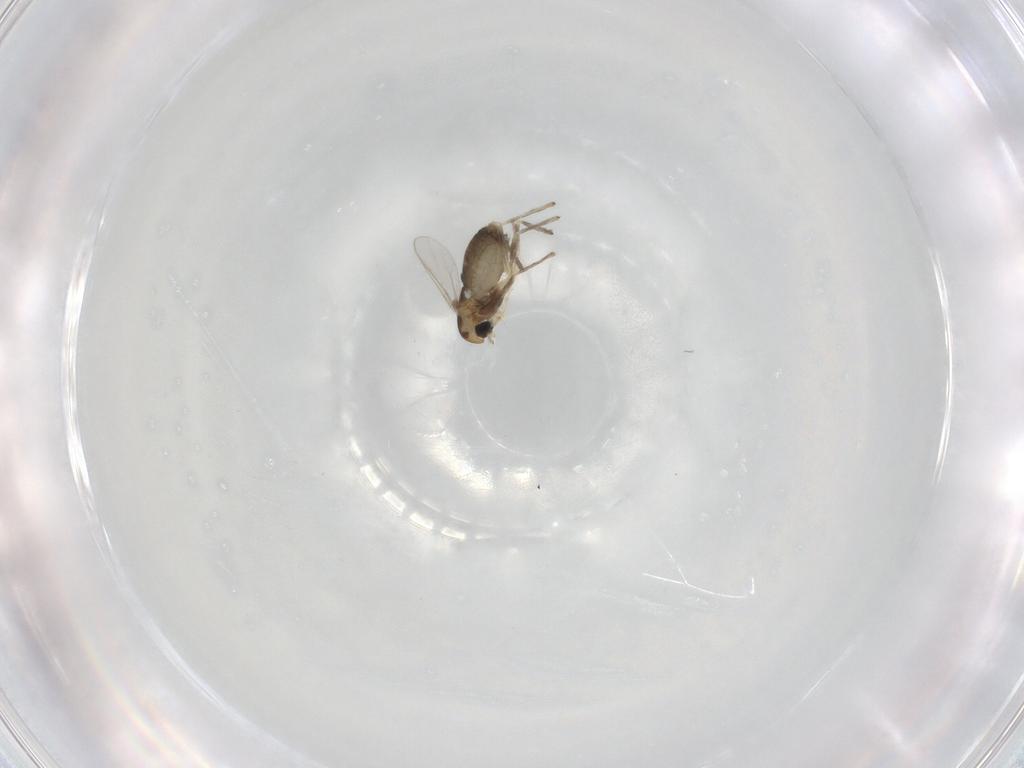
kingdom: Animalia
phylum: Arthropoda
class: Insecta
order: Diptera
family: Chironomidae
